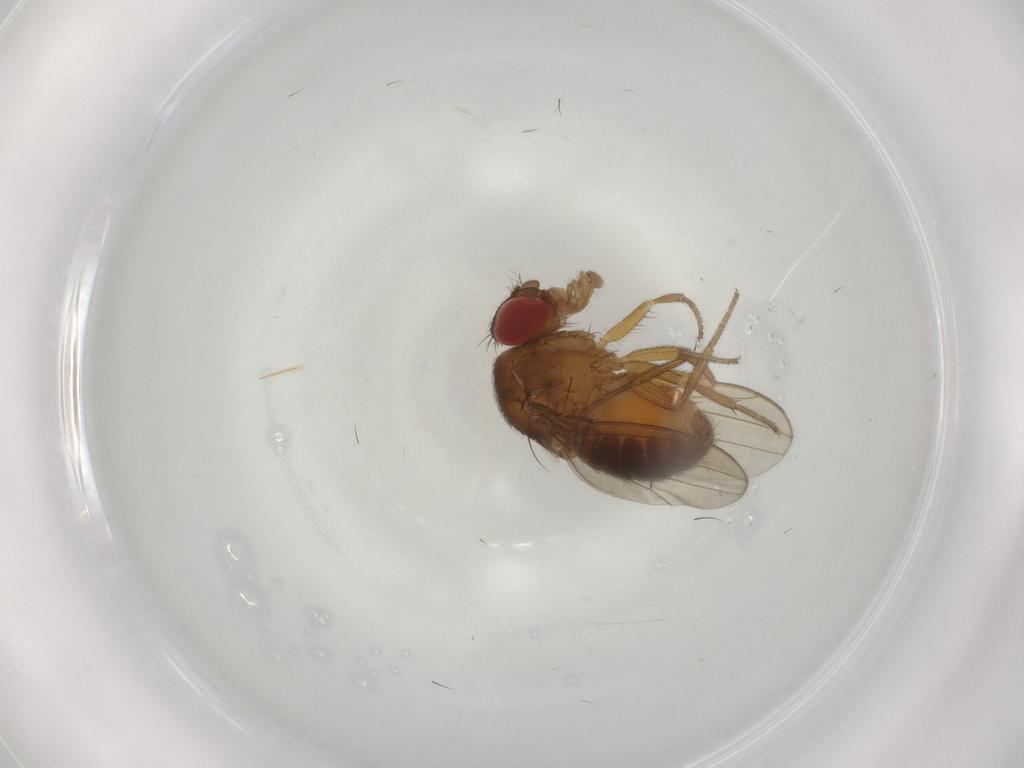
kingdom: Animalia
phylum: Arthropoda
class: Insecta
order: Diptera
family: Drosophilidae
